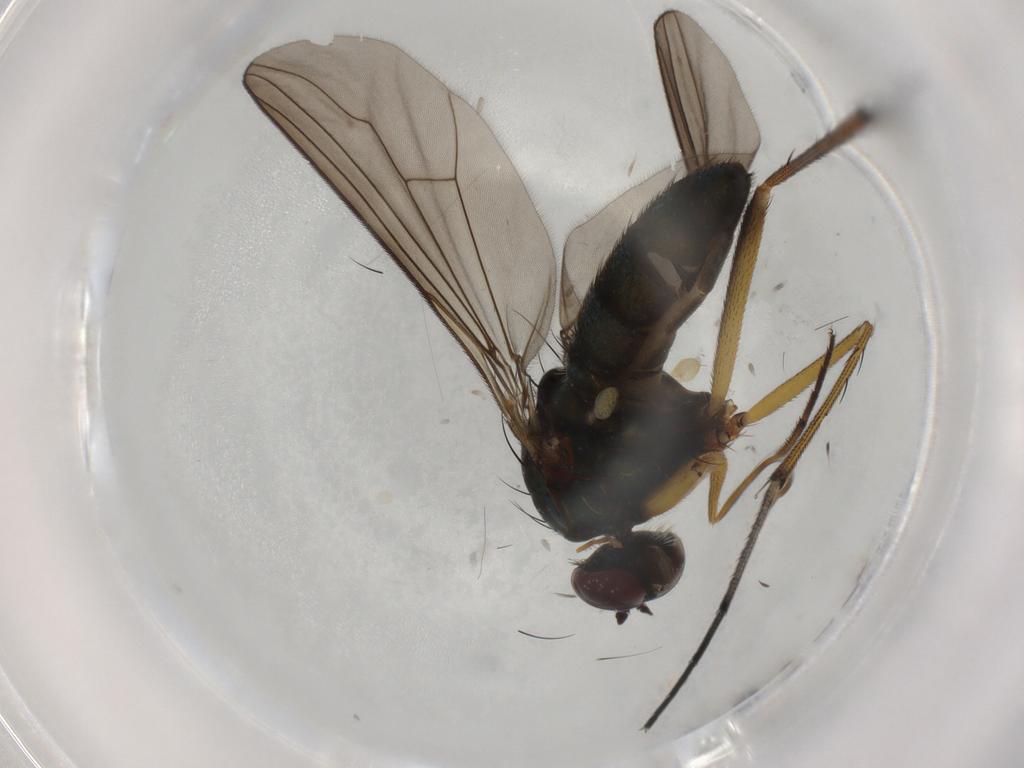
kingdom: Animalia
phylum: Arthropoda
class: Insecta
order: Diptera
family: Dolichopodidae
